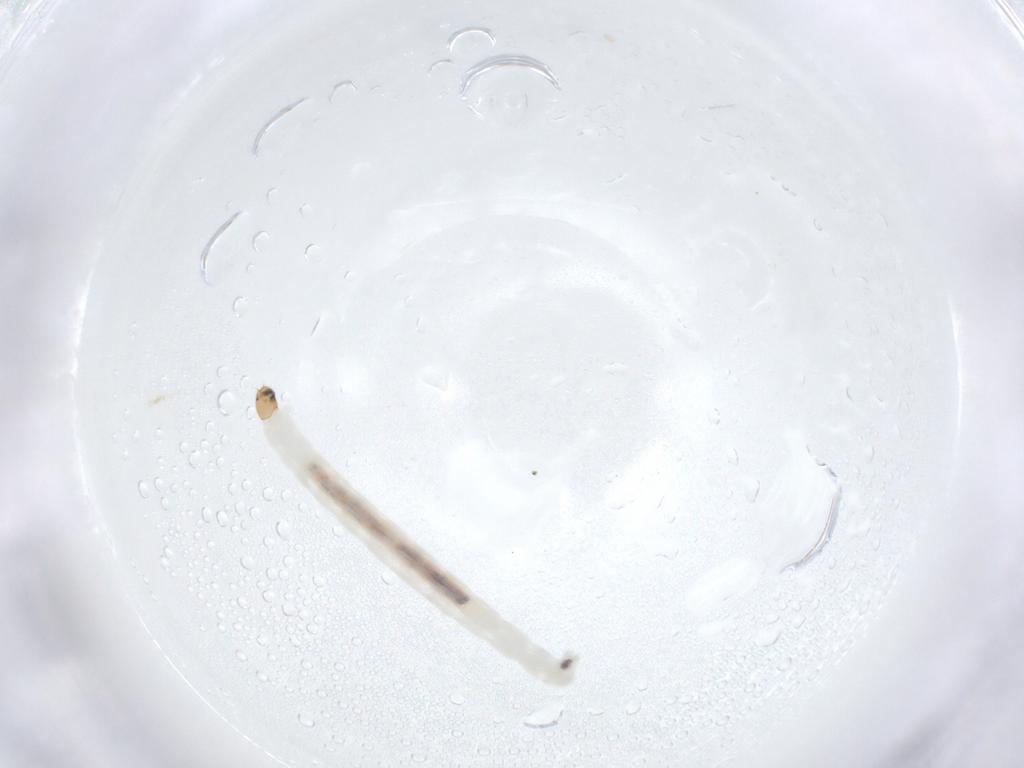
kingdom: Animalia
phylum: Arthropoda
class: Insecta
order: Diptera
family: Chironomidae
